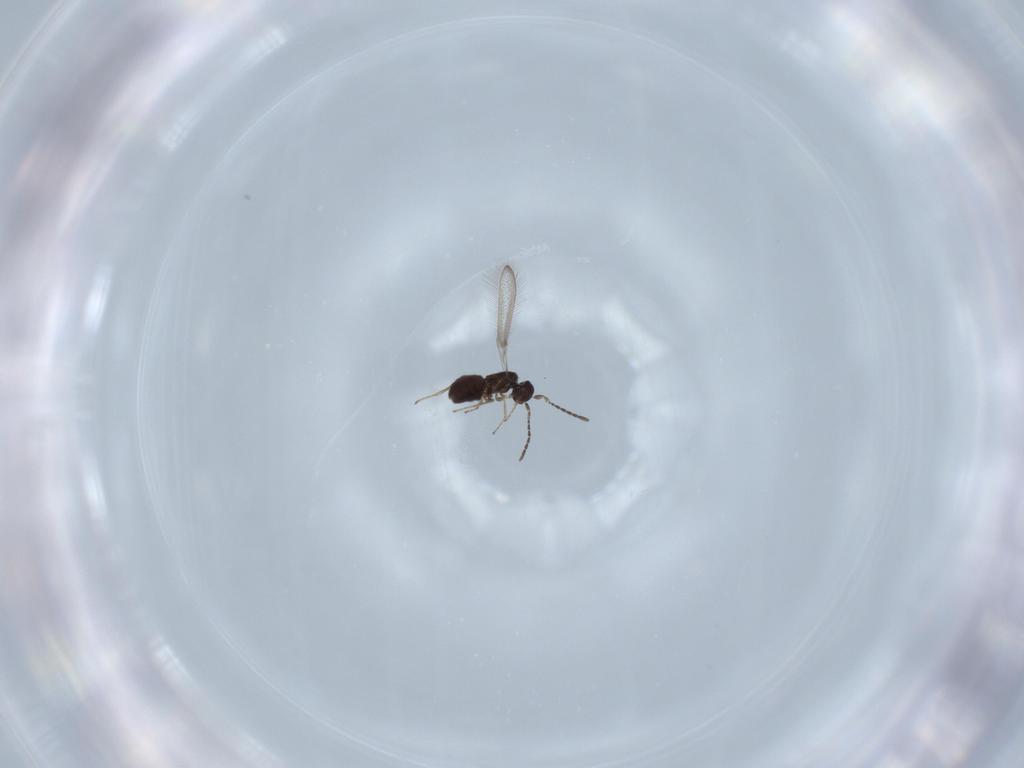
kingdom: Animalia
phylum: Arthropoda
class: Insecta
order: Hymenoptera
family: Mymaridae
